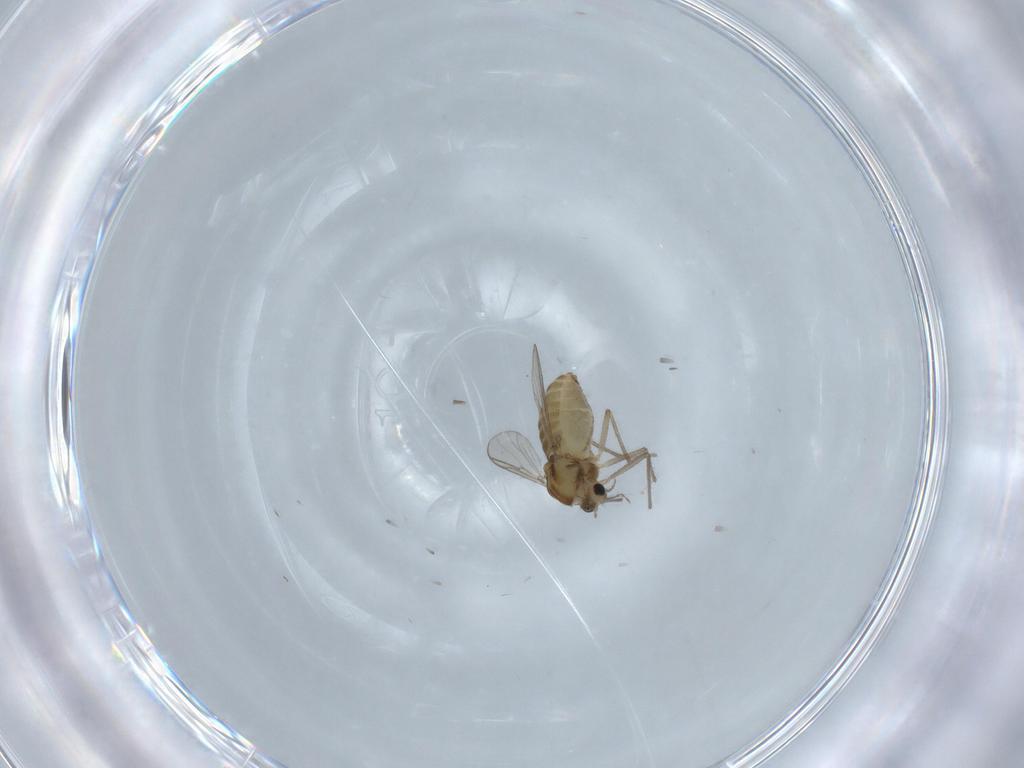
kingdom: Animalia
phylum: Arthropoda
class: Insecta
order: Diptera
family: Chironomidae
